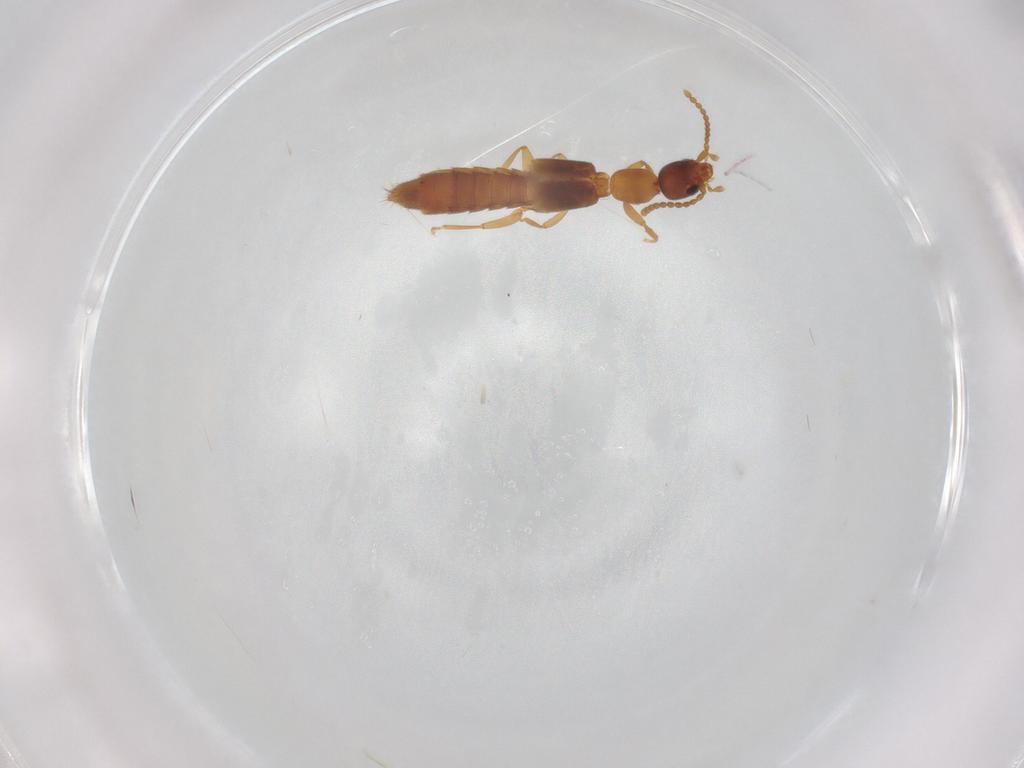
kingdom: Animalia
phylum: Arthropoda
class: Insecta
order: Coleoptera
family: Staphylinidae
